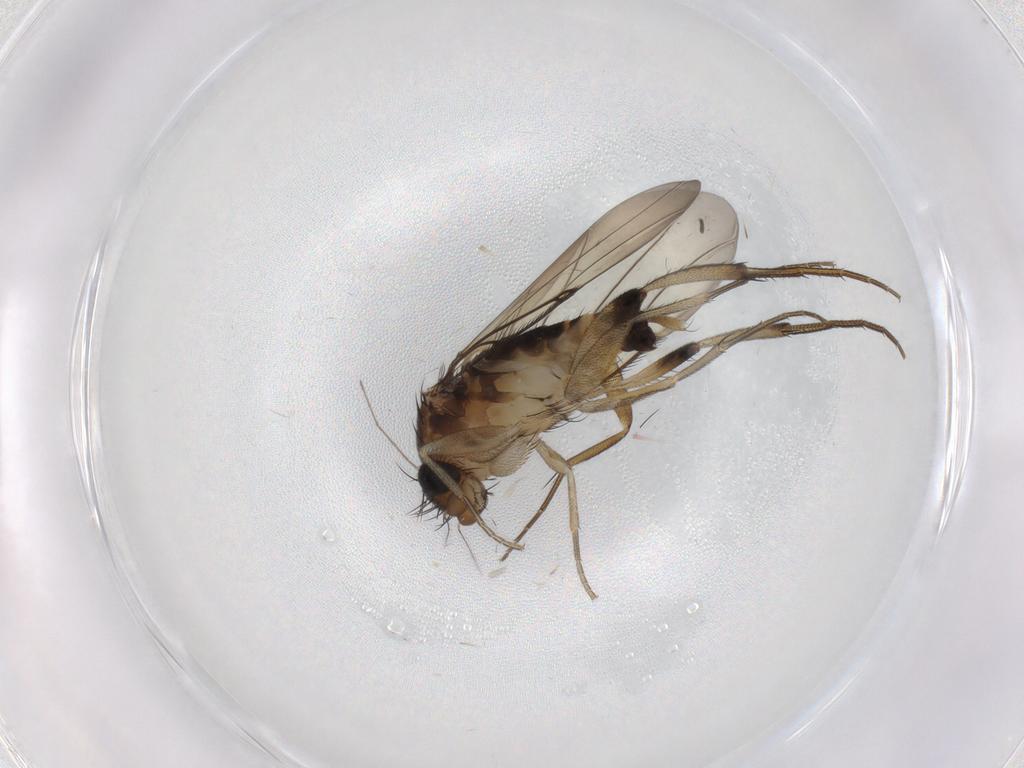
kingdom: Animalia
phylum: Arthropoda
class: Insecta
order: Diptera
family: Phoridae
